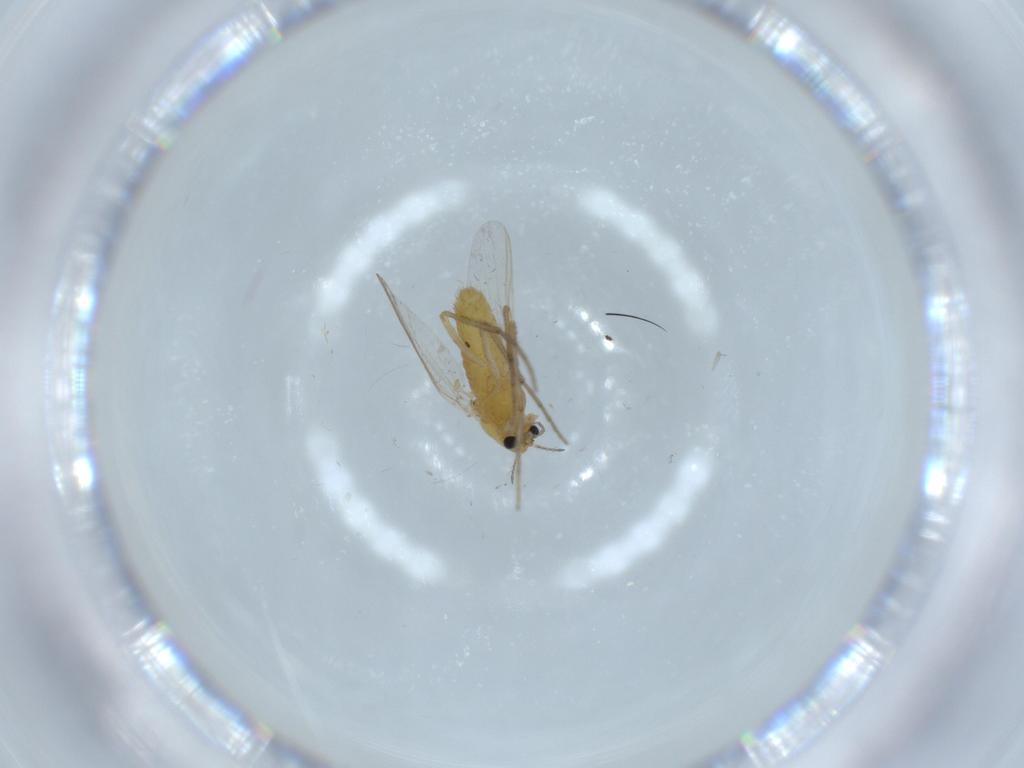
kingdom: Animalia
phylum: Arthropoda
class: Insecta
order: Diptera
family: Chironomidae
